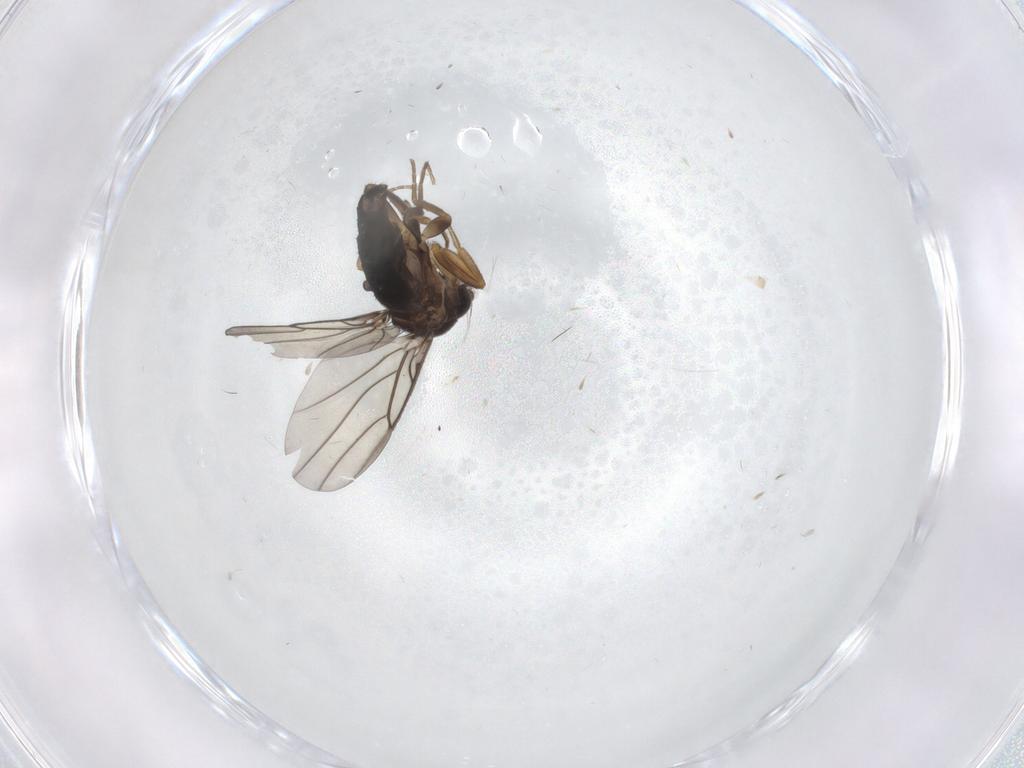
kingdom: Animalia
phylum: Arthropoda
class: Insecta
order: Diptera
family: Phoridae
